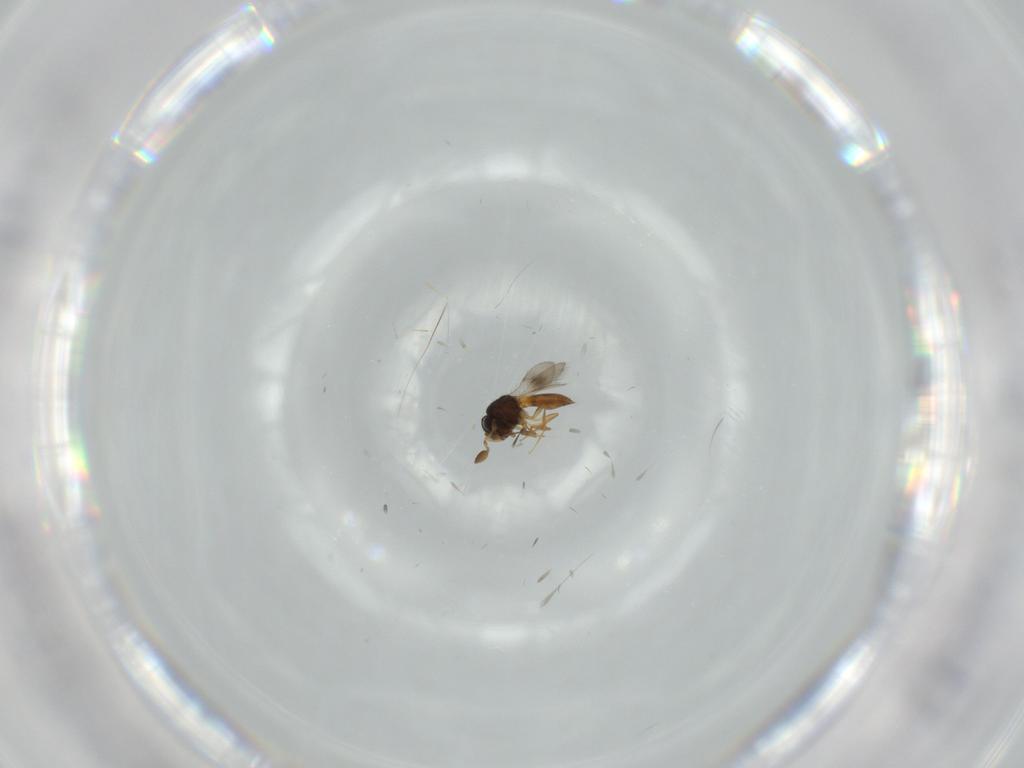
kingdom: Animalia
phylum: Arthropoda
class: Insecta
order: Hymenoptera
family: Scelionidae
